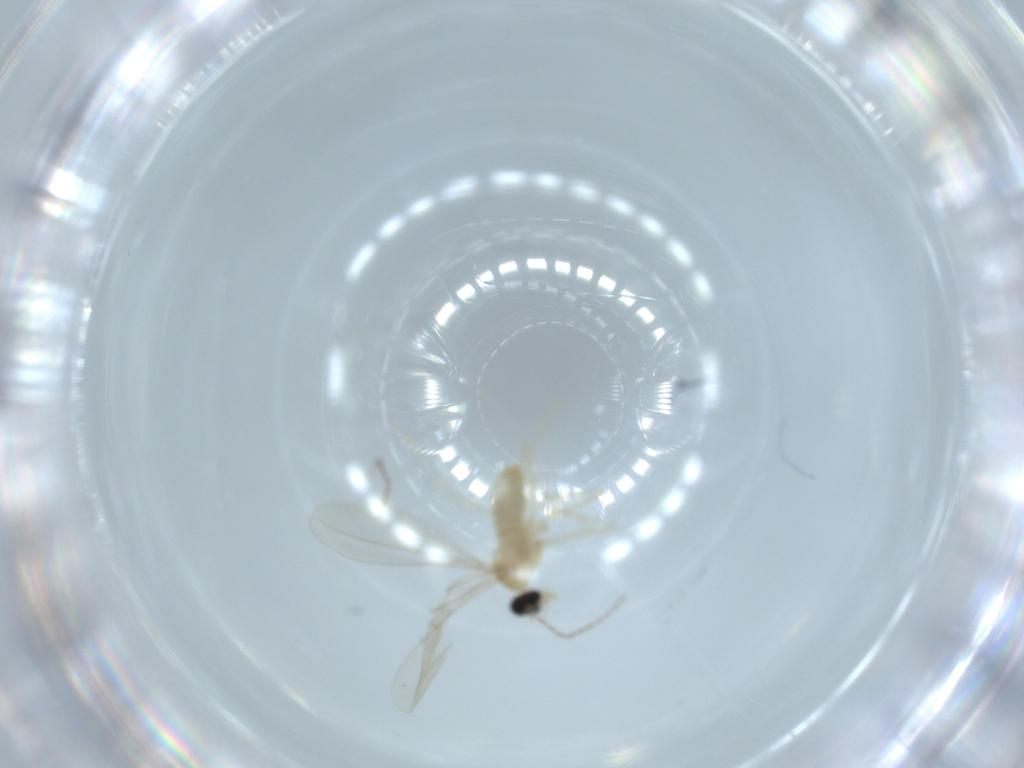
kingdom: Animalia
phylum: Arthropoda
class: Insecta
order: Diptera
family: Cecidomyiidae
